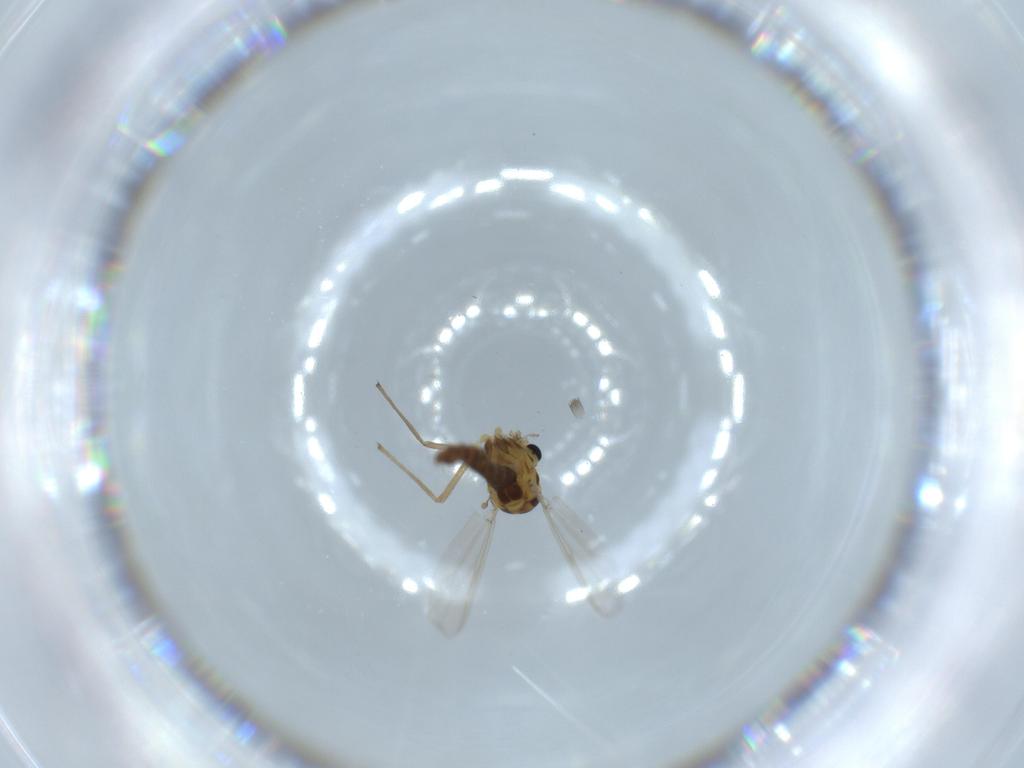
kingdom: Animalia
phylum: Arthropoda
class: Insecta
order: Diptera
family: Chironomidae
